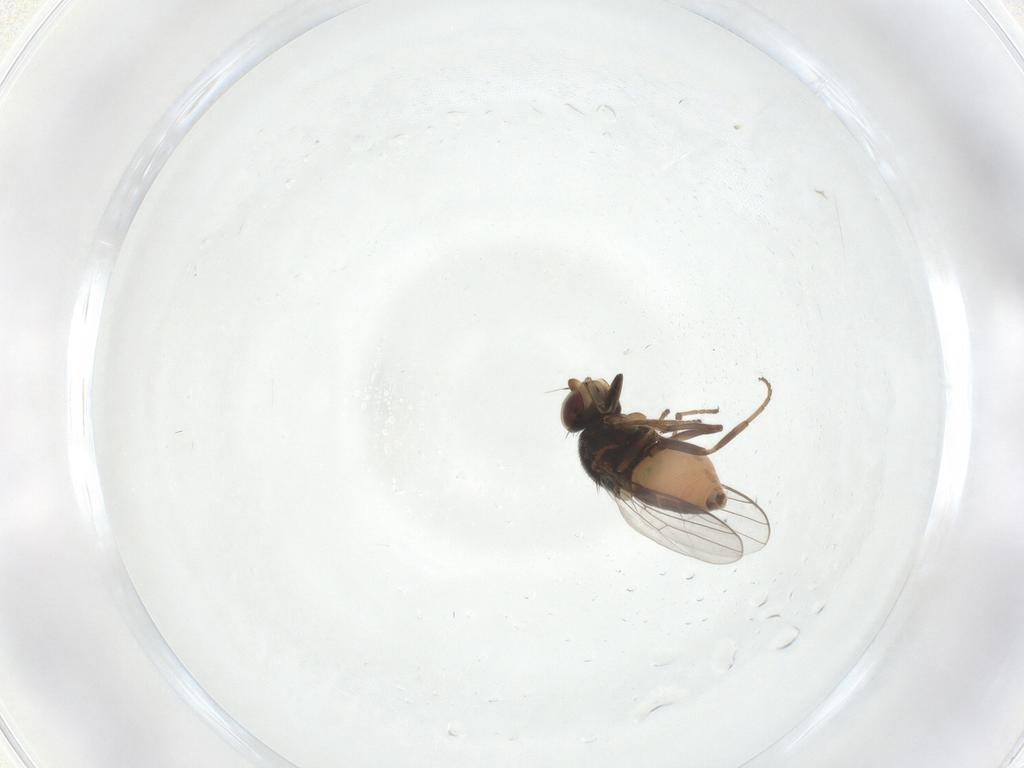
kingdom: Animalia
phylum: Arthropoda
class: Insecta
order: Diptera
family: Chloropidae
